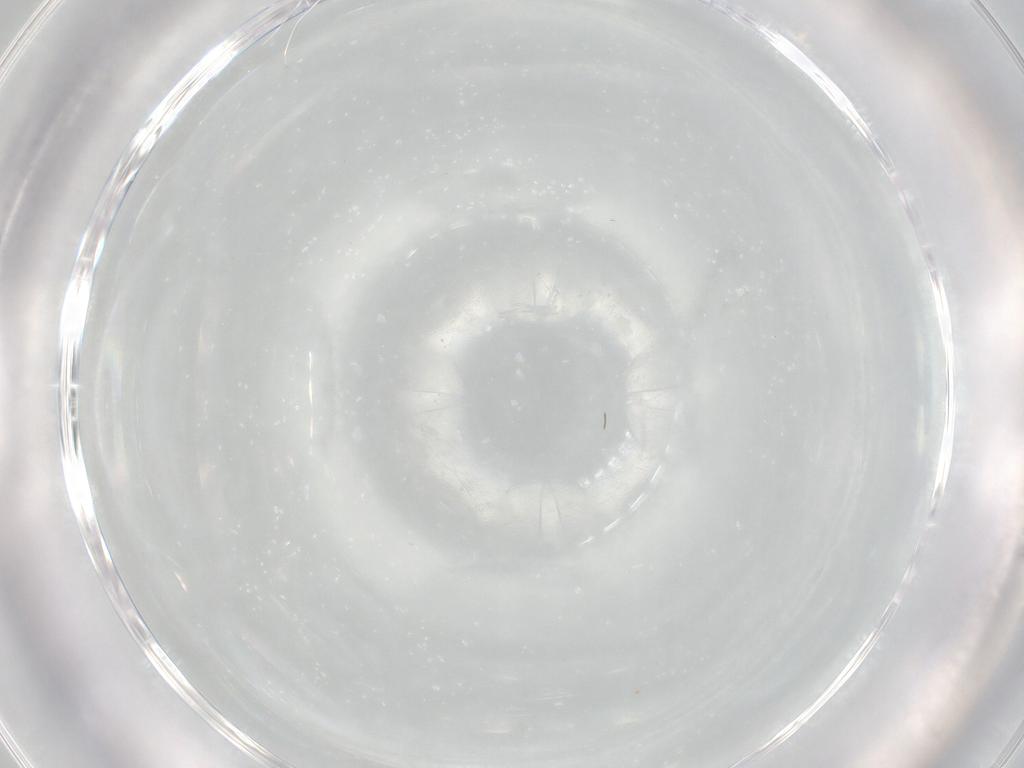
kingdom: Animalia
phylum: Arthropoda
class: Insecta
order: Diptera
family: Cecidomyiidae
